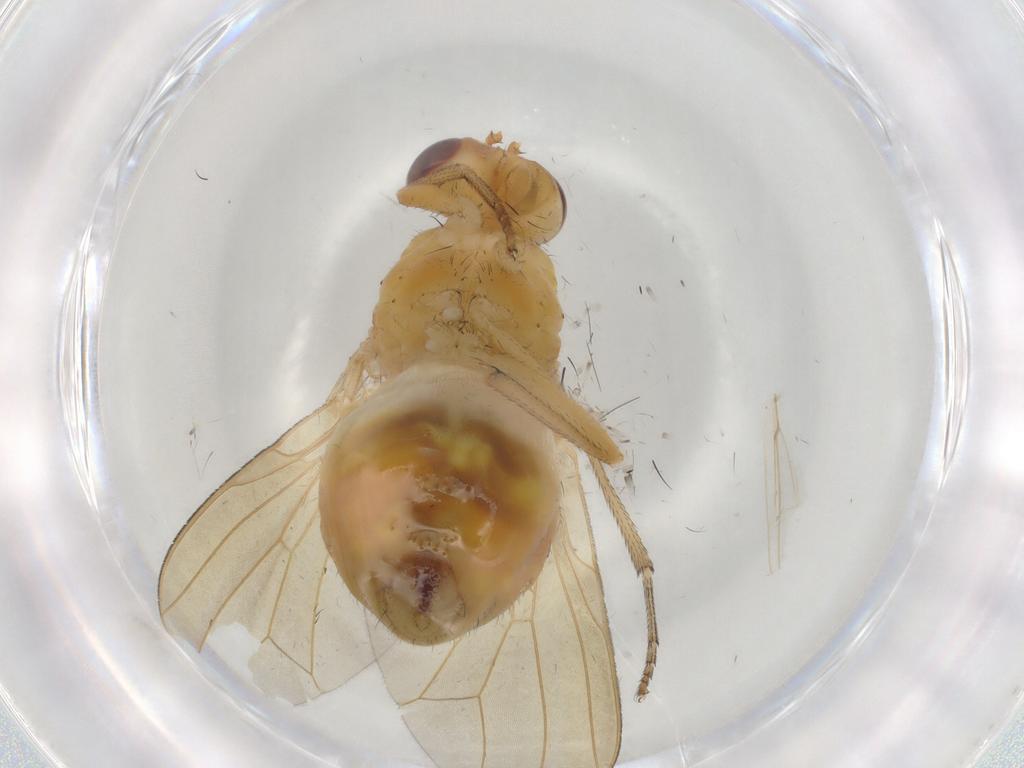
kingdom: Animalia
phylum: Arthropoda
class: Insecta
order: Diptera
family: Lauxaniidae
